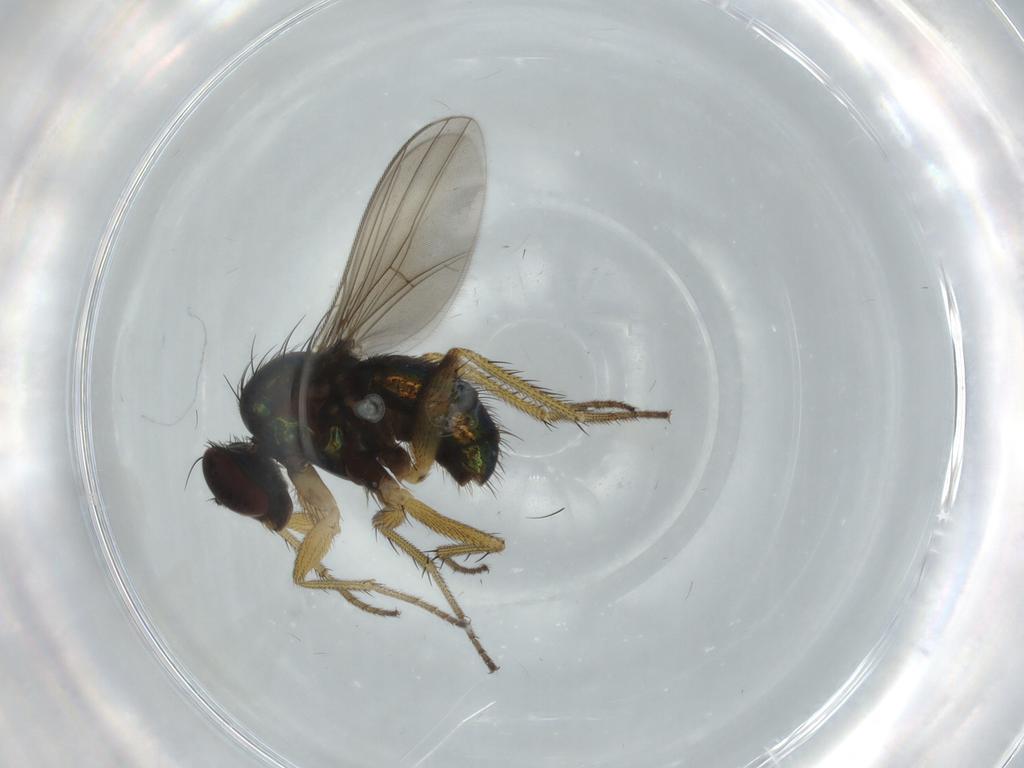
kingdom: Animalia
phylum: Arthropoda
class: Insecta
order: Diptera
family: Dolichopodidae
